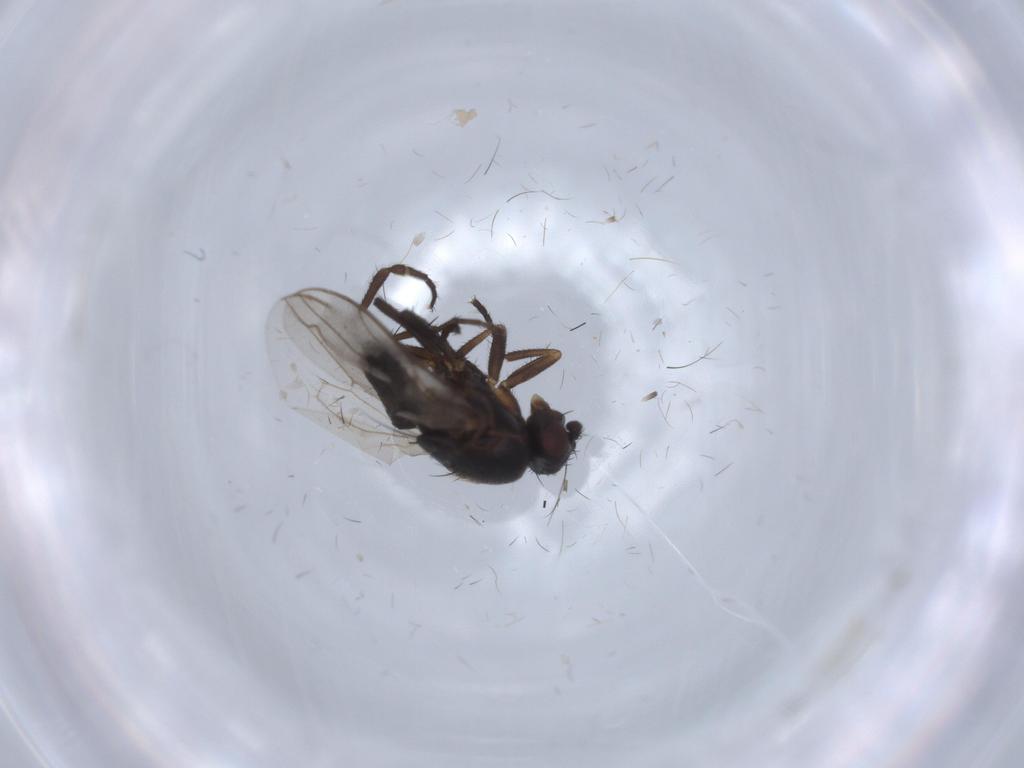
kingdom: Animalia
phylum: Arthropoda
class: Insecta
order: Diptera
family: Sphaeroceridae
